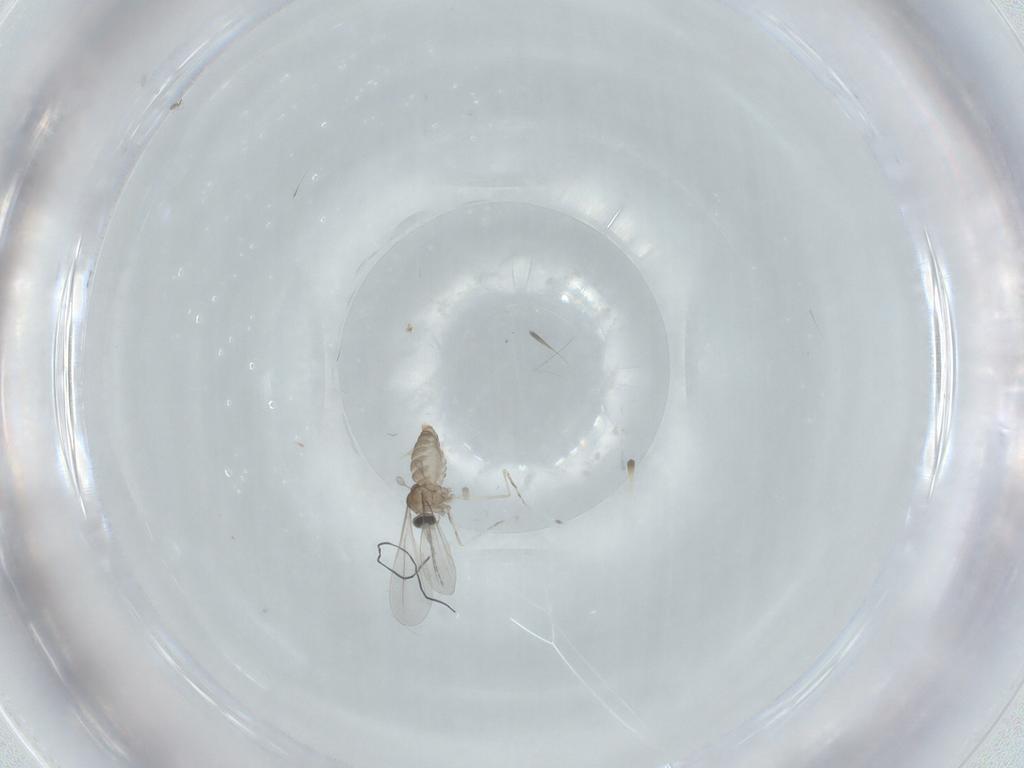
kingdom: Animalia
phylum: Arthropoda
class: Insecta
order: Diptera
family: Cecidomyiidae
